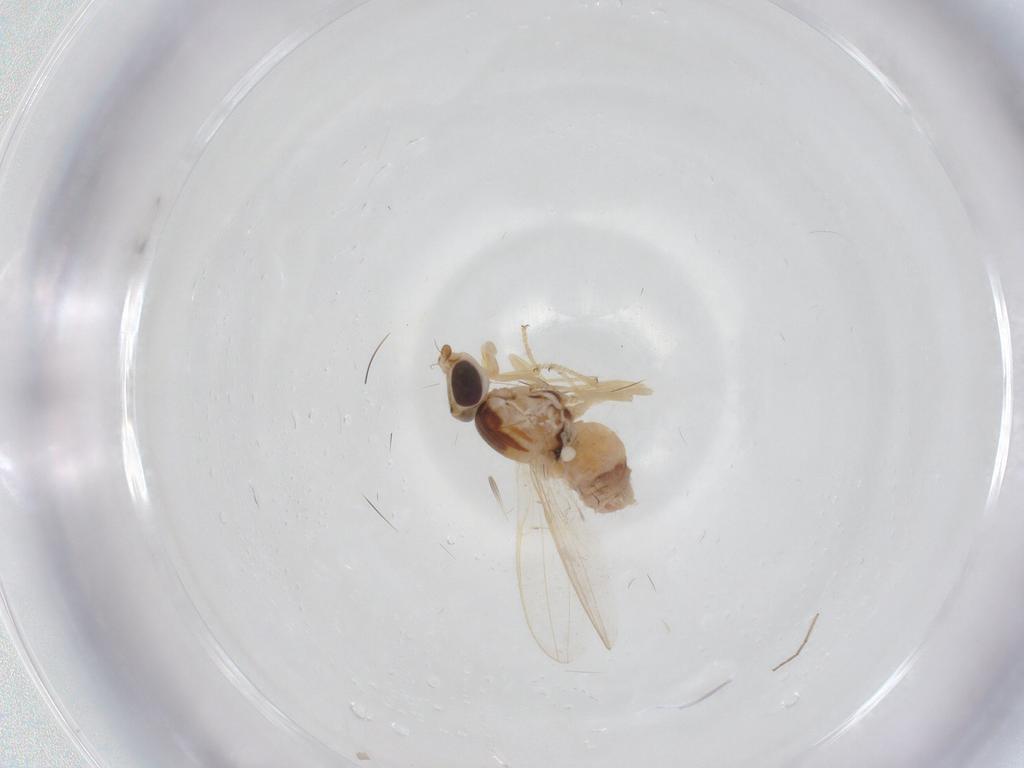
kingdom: Animalia
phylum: Arthropoda
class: Insecta
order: Diptera
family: Chloropidae
